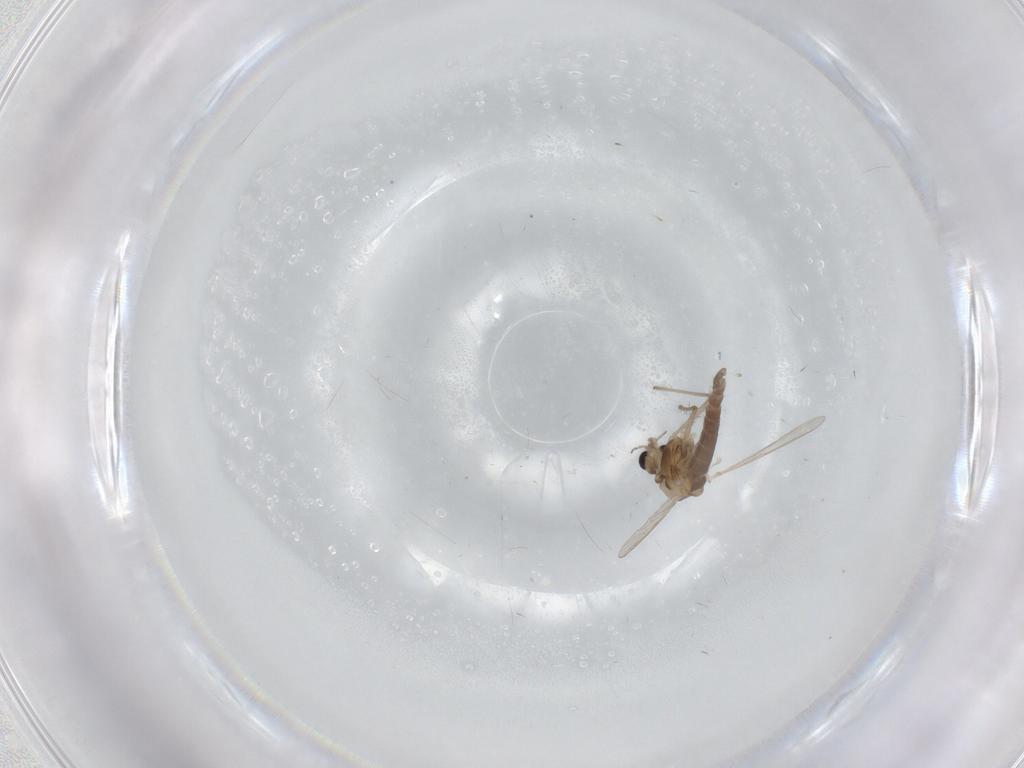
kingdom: Animalia
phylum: Arthropoda
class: Insecta
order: Diptera
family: Chironomidae
